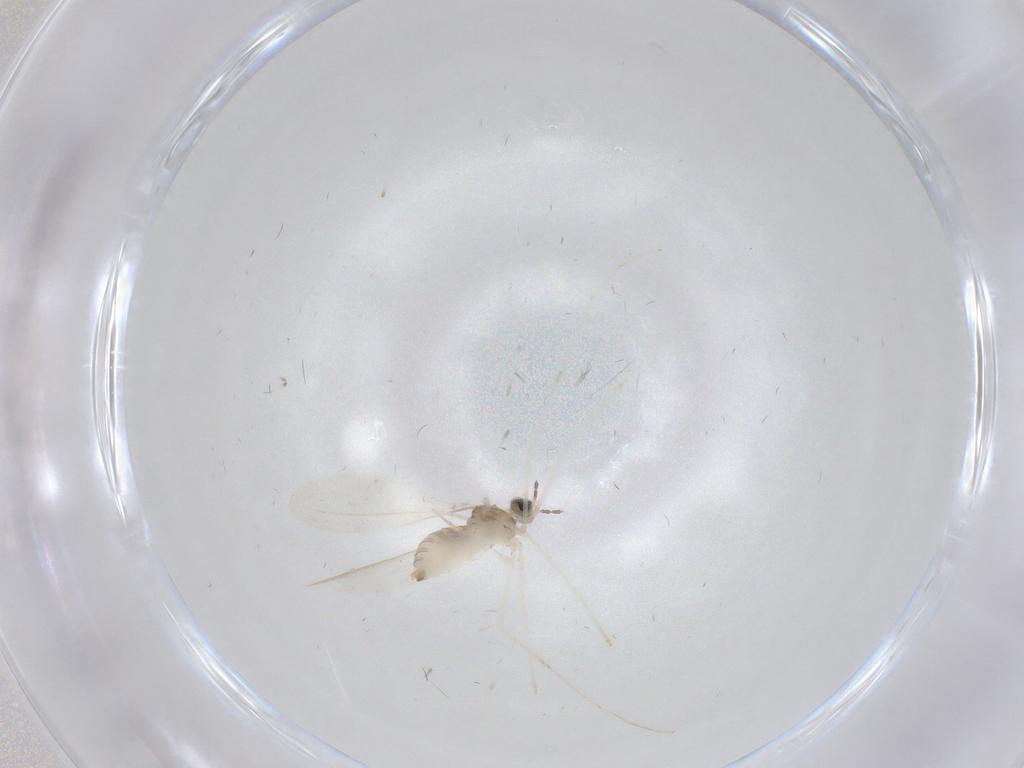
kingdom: Animalia
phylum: Arthropoda
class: Insecta
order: Diptera
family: Cecidomyiidae
